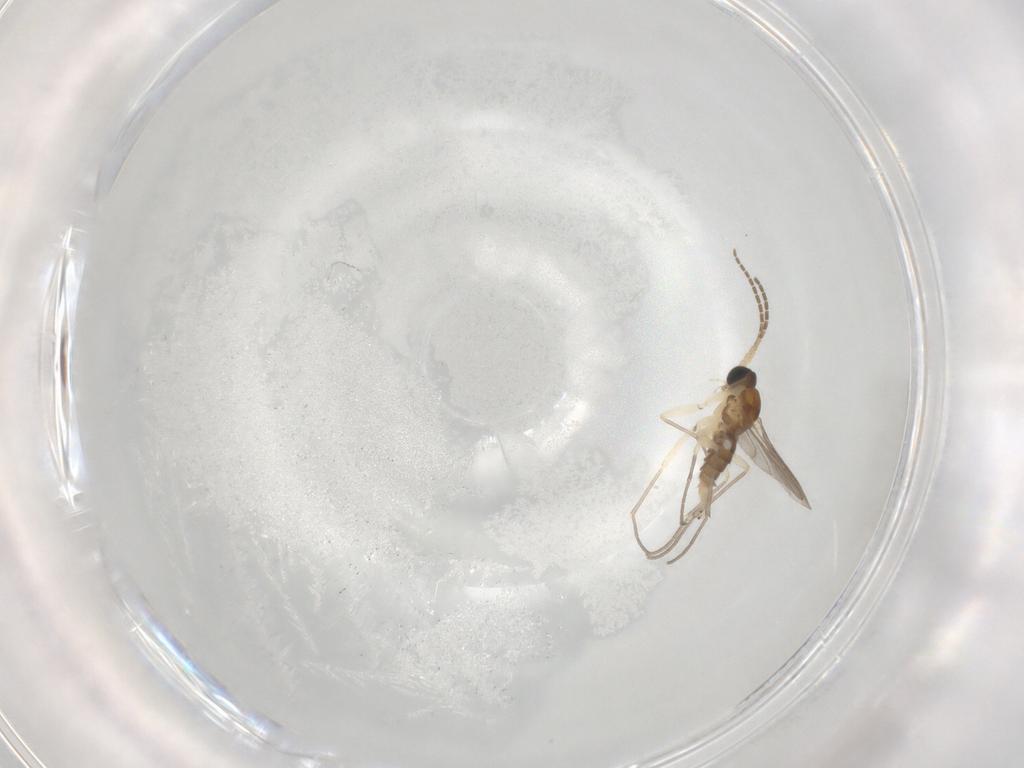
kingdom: Animalia
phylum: Arthropoda
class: Insecta
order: Diptera
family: Sciaridae
